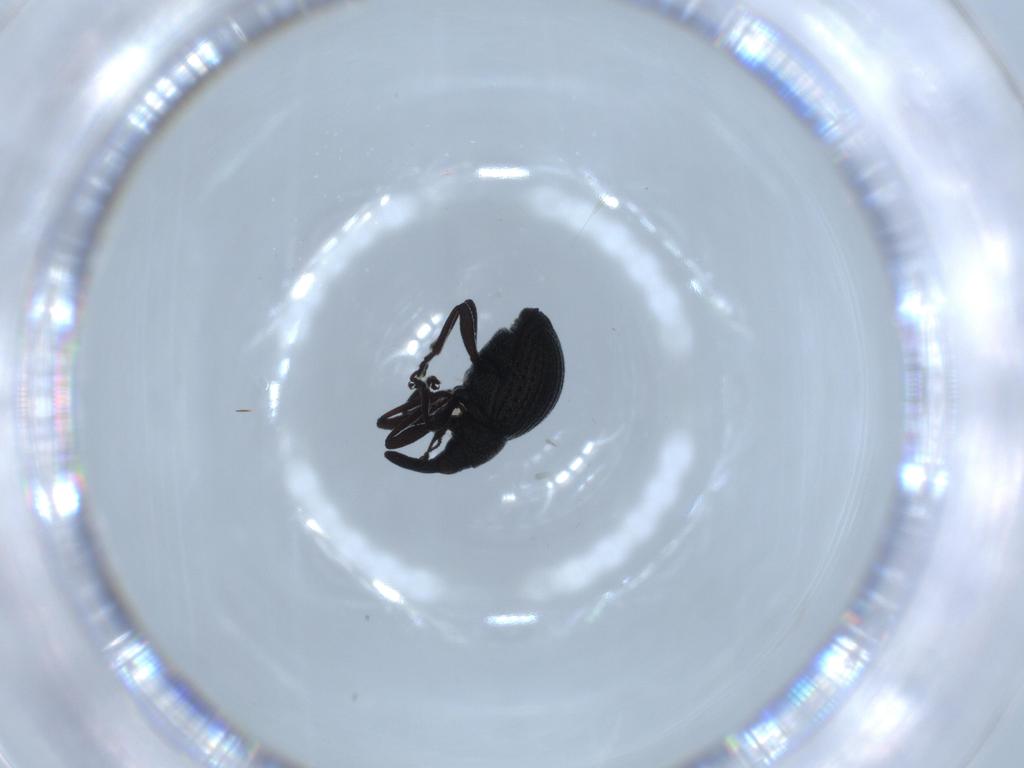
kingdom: Animalia
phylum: Arthropoda
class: Insecta
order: Coleoptera
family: Brentidae
